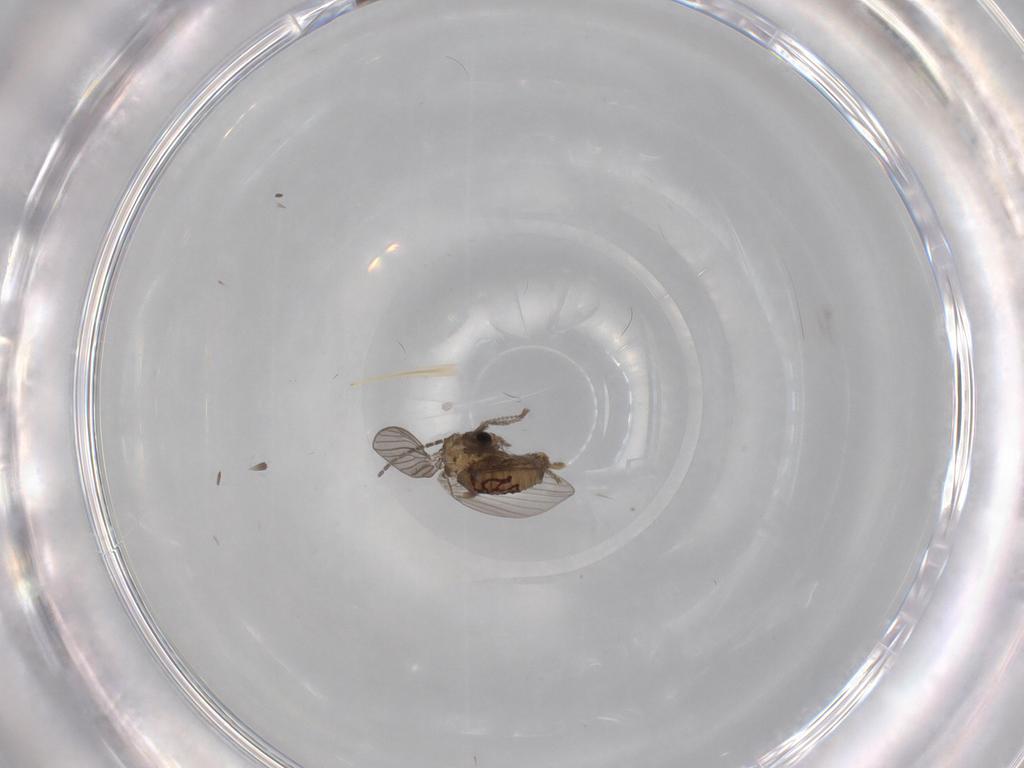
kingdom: Animalia
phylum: Arthropoda
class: Insecta
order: Diptera
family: Psychodidae
